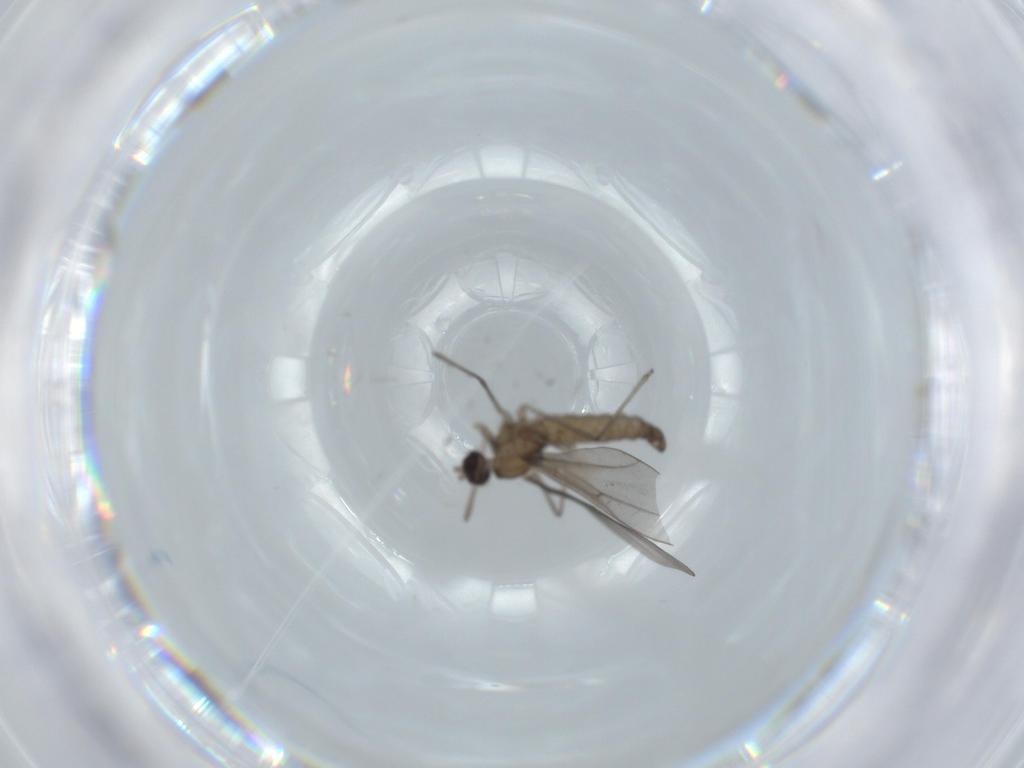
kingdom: Animalia
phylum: Arthropoda
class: Insecta
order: Diptera
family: Cecidomyiidae
